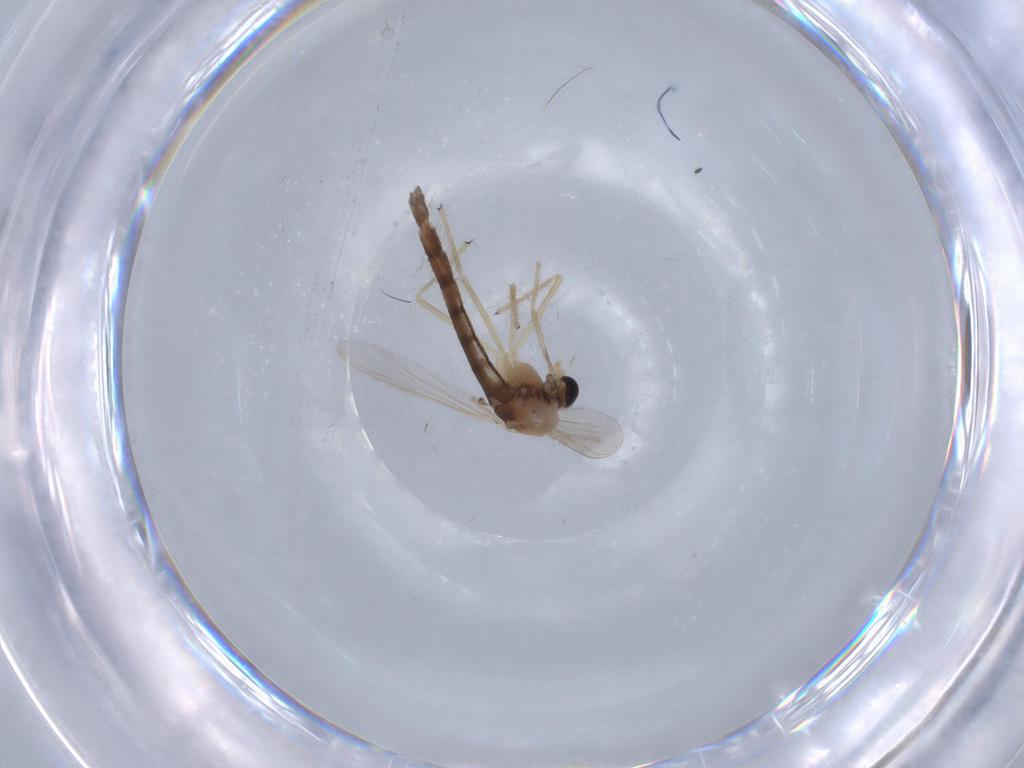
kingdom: Animalia
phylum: Arthropoda
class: Insecta
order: Diptera
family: Chironomidae
